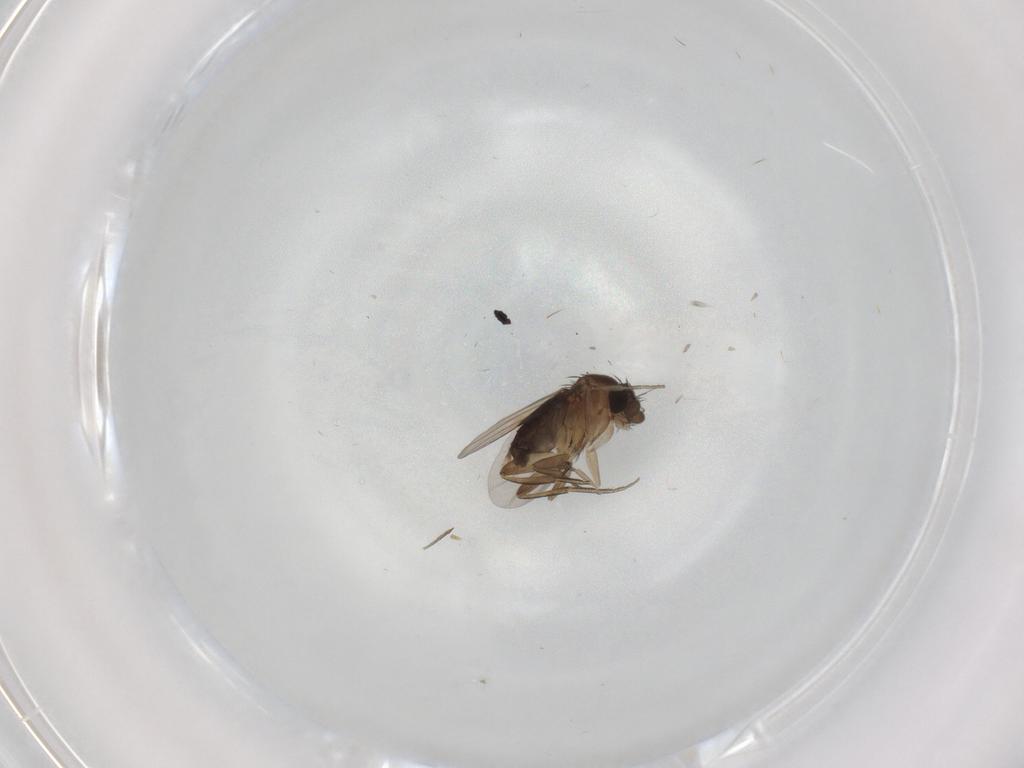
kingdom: Animalia
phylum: Arthropoda
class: Insecta
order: Diptera
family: Phoridae
